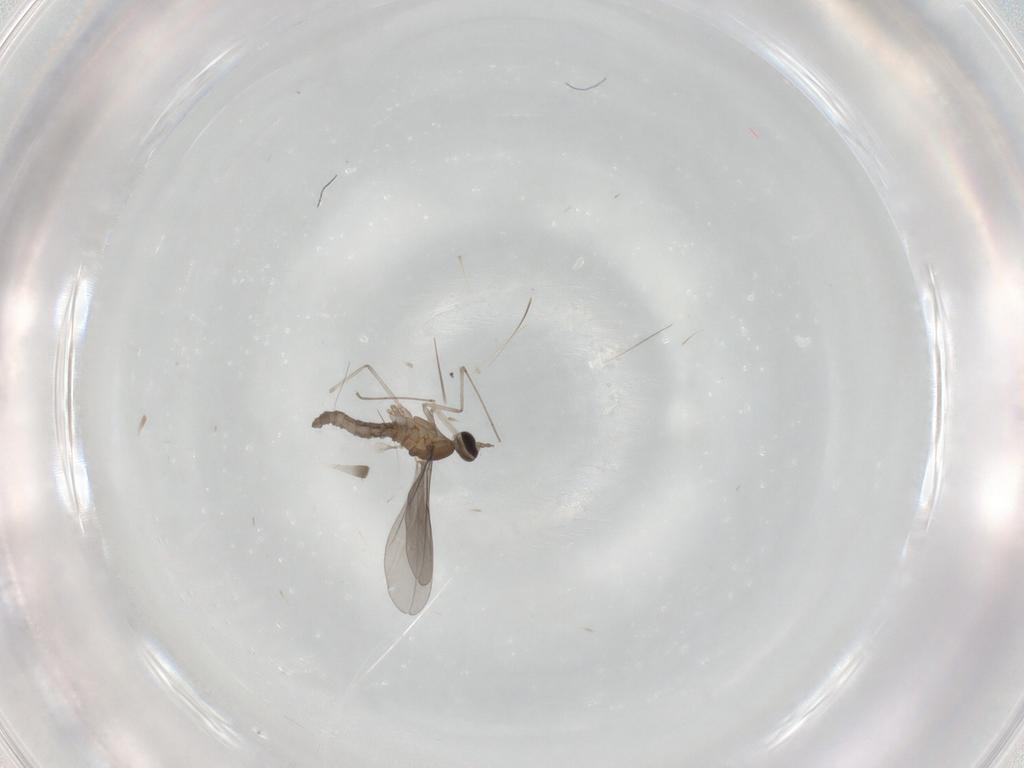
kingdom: Animalia
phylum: Arthropoda
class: Insecta
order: Diptera
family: Cecidomyiidae
